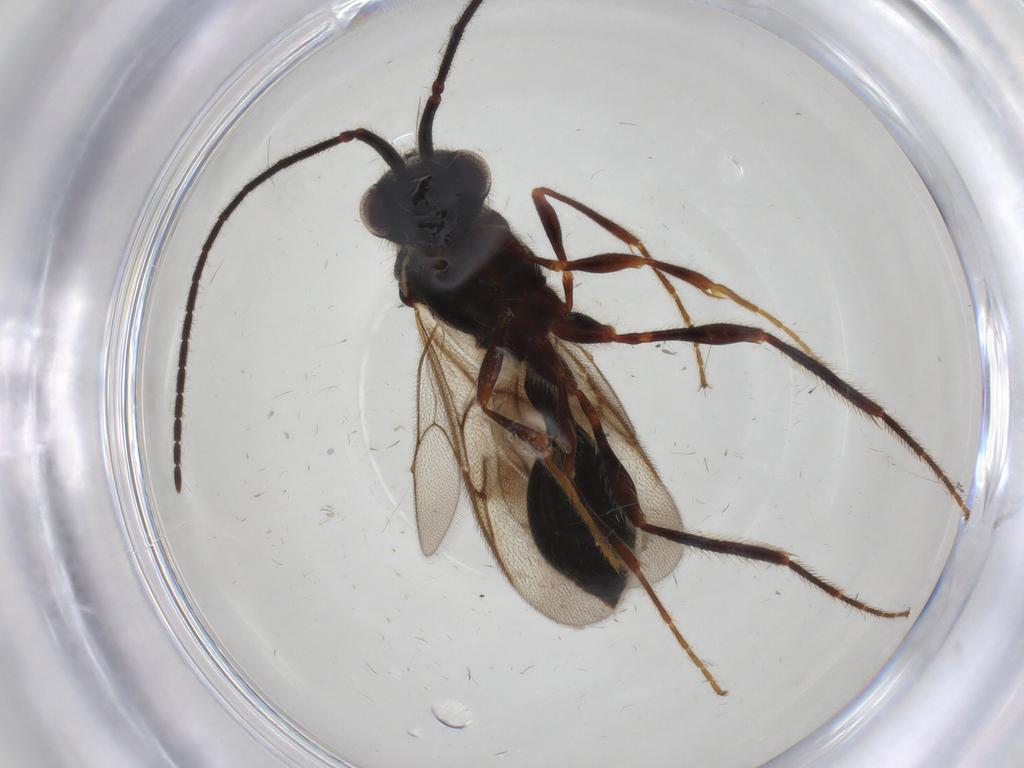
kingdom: Animalia
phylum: Arthropoda
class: Insecta
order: Hymenoptera
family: Diapriidae
